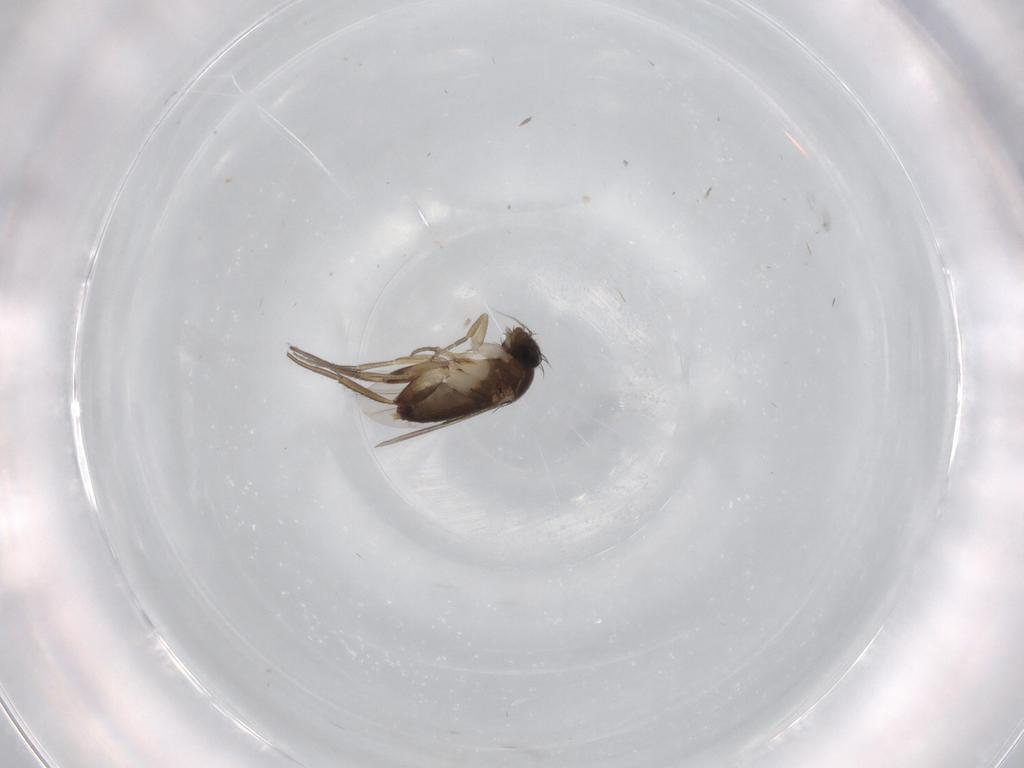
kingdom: Animalia
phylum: Arthropoda
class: Insecta
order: Diptera
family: Phoridae
